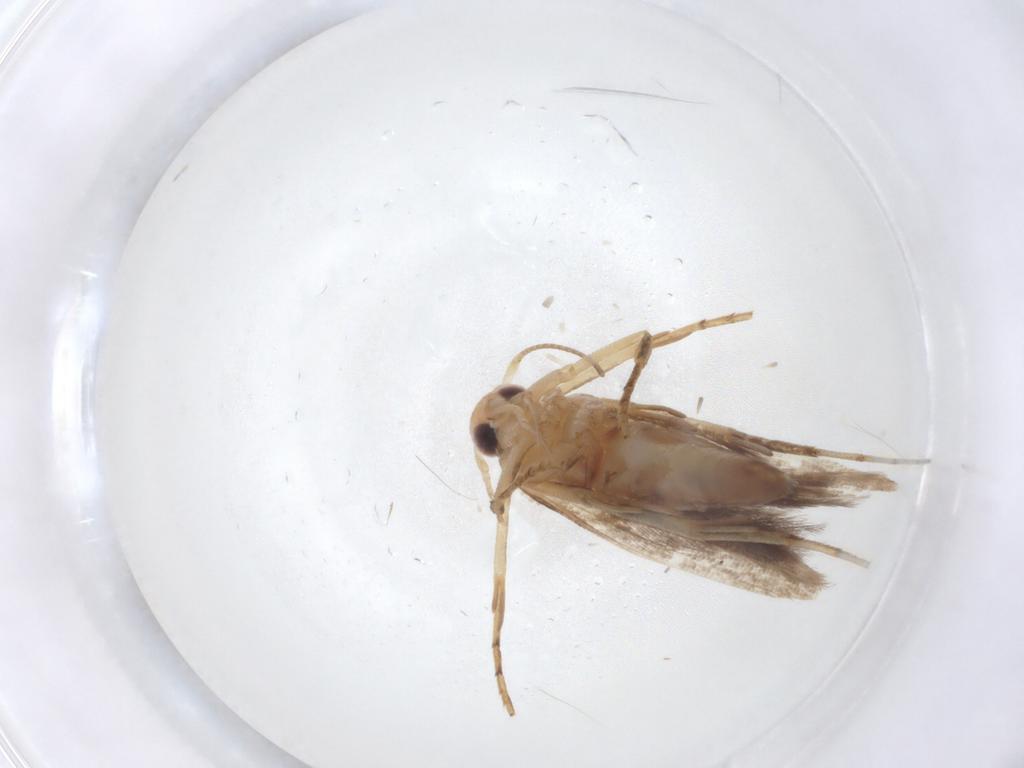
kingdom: Animalia
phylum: Arthropoda
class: Insecta
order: Lepidoptera
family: Gelechiidae
